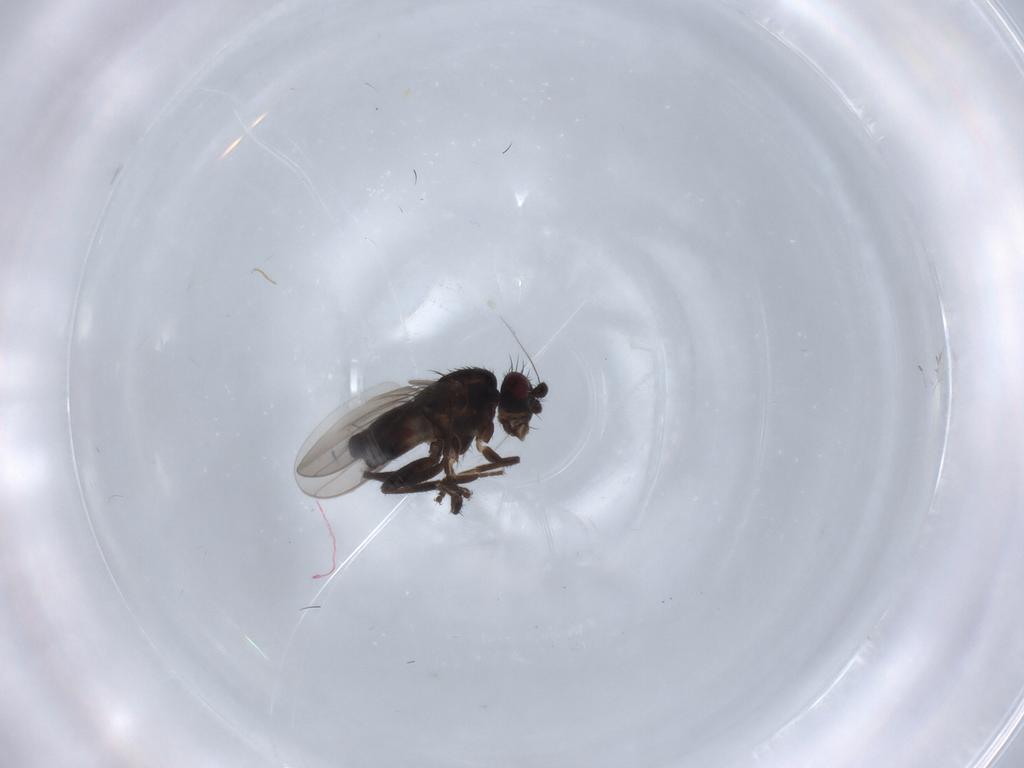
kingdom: Animalia
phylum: Arthropoda
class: Insecta
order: Diptera
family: Sphaeroceridae
